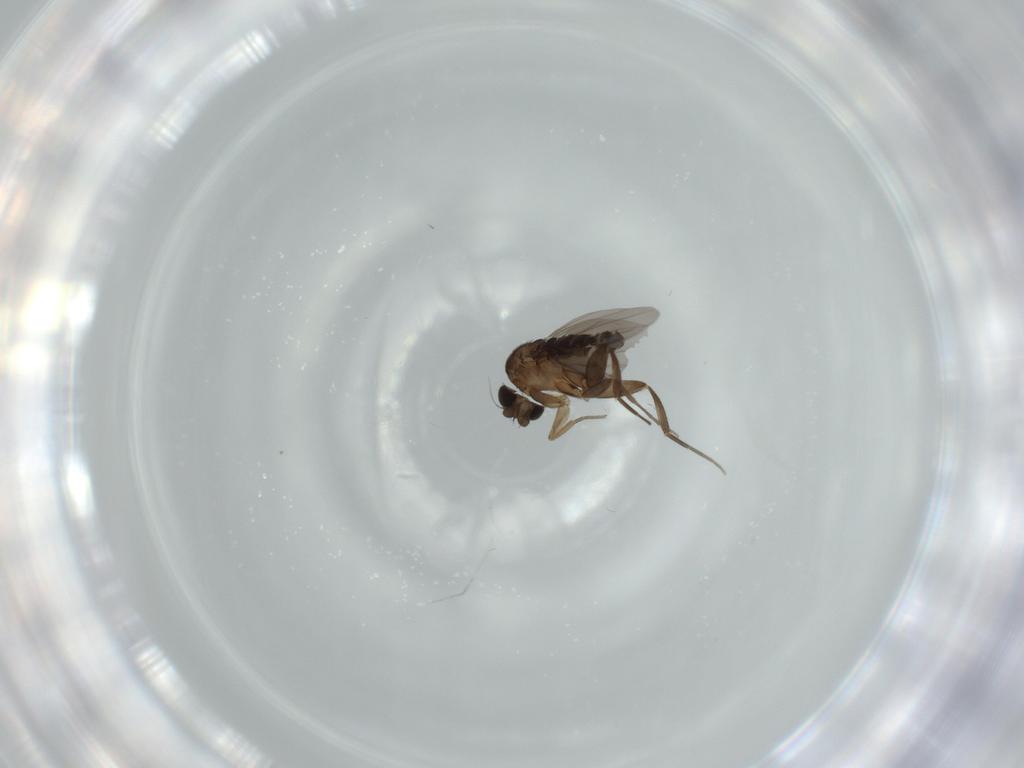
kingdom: Animalia
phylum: Arthropoda
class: Insecta
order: Diptera
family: Phoridae
